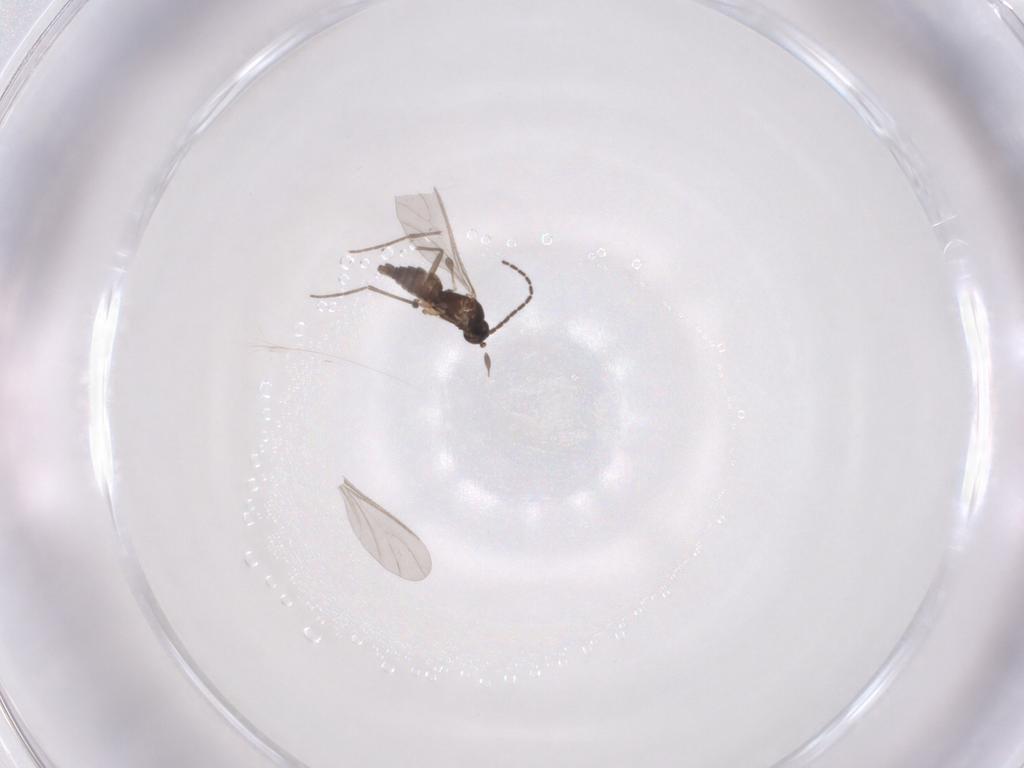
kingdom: Animalia
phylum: Arthropoda
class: Insecta
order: Diptera
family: Sciaridae
